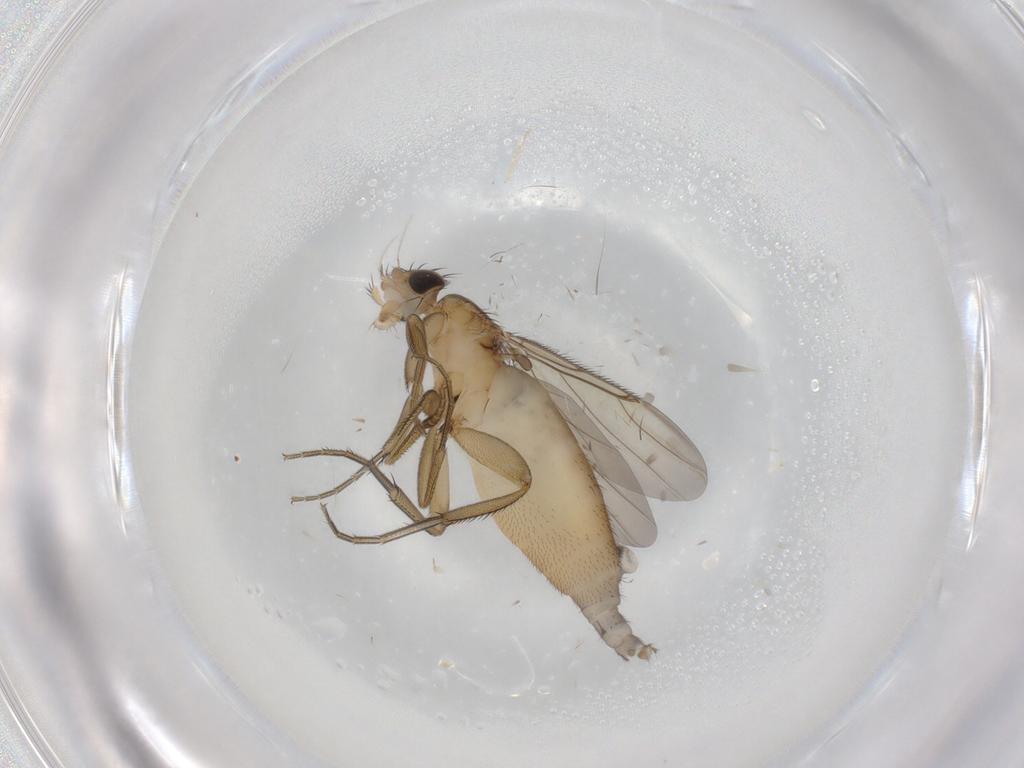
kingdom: Animalia
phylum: Arthropoda
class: Insecta
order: Diptera
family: Phoridae
